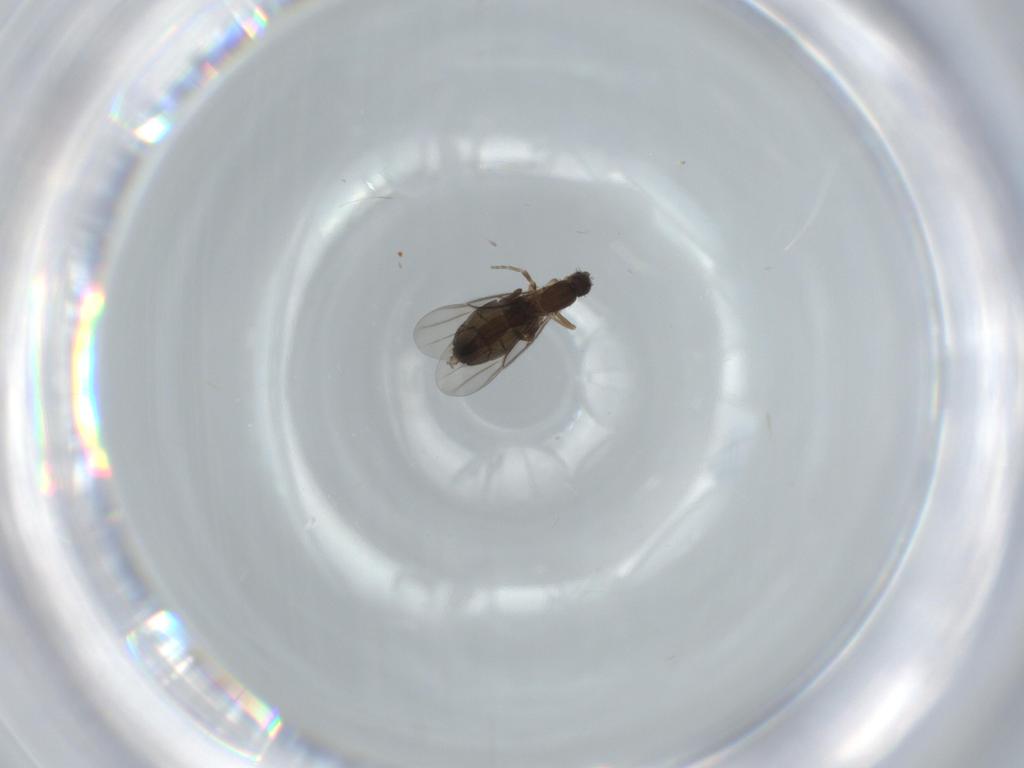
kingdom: Animalia
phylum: Arthropoda
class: Insecta
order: Diptera
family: Phoridae
